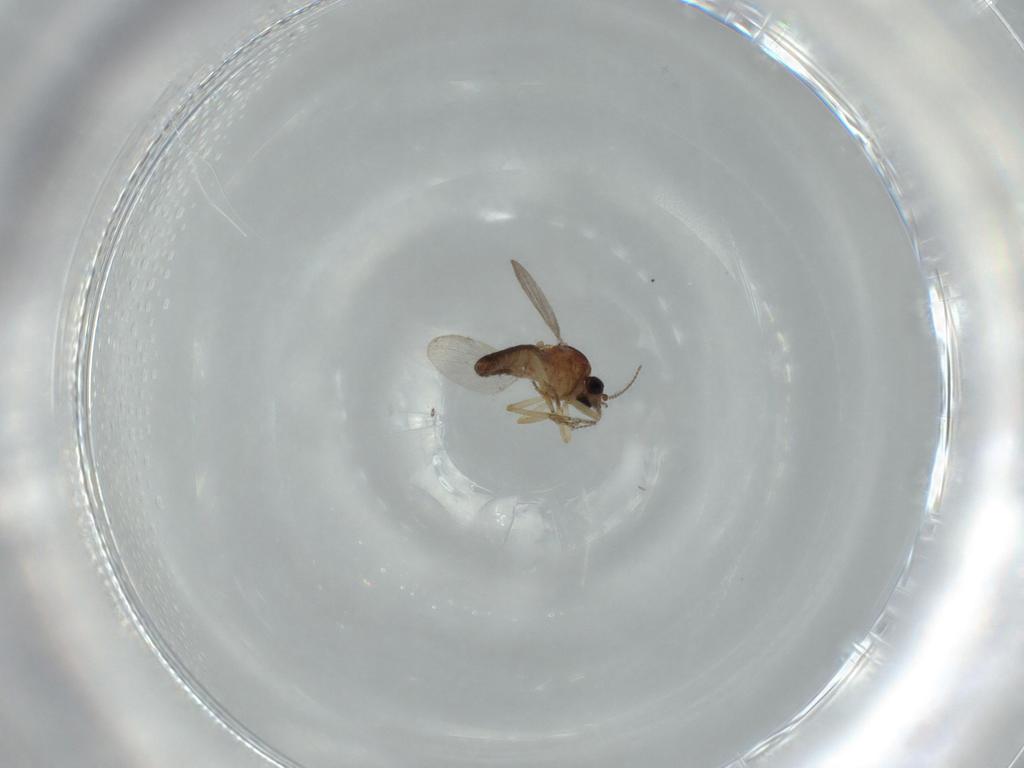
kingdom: Animalia
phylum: Arthropoda
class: Insecta
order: Diptera
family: Ceratopogonidae
